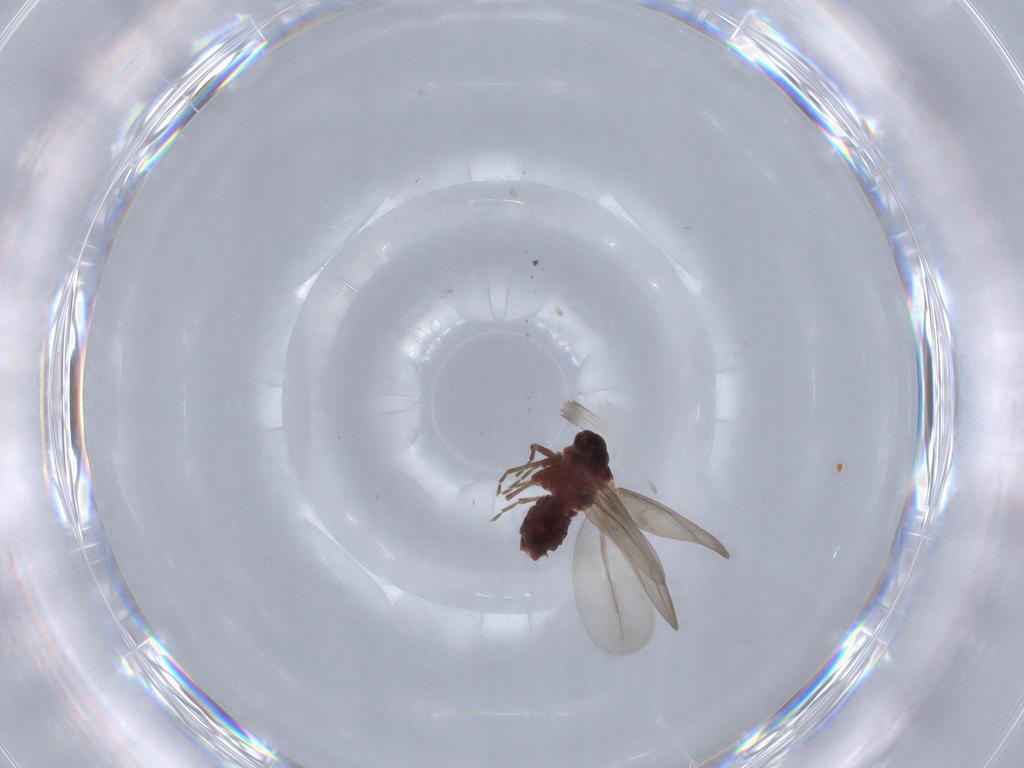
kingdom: Animalia
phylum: Arthropoda
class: Insecta
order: Hemiptera
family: Aleyrodidae
